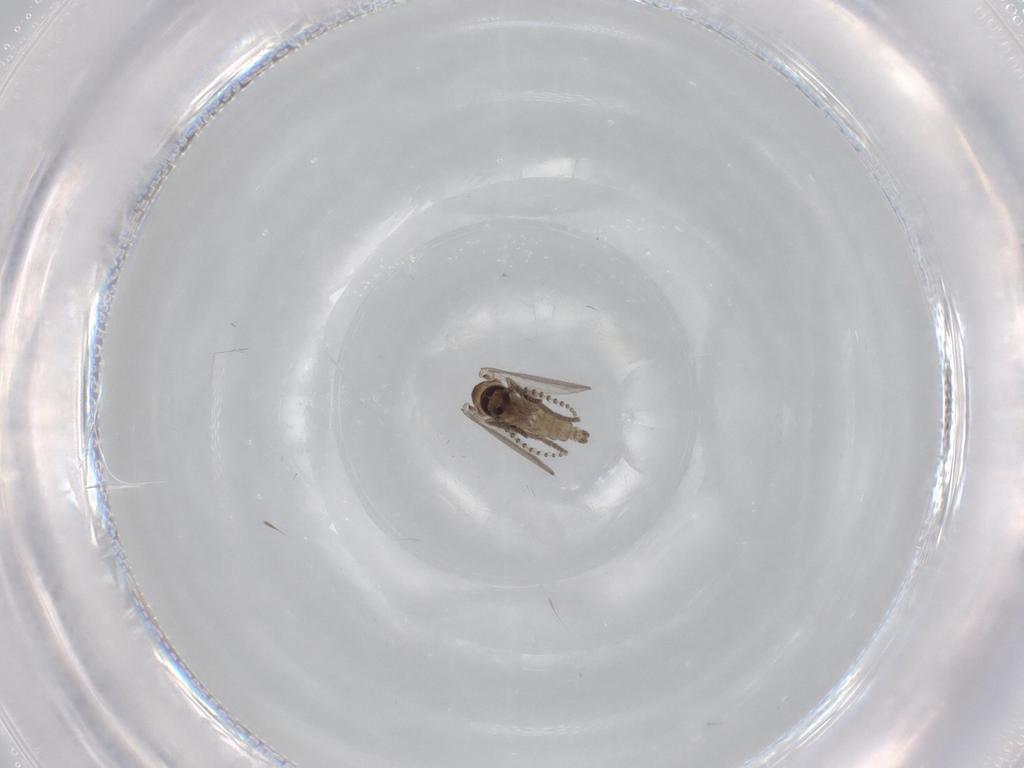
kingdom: Animalia
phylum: Arthropoda
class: Insecta
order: Diptera
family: Psychodidae
